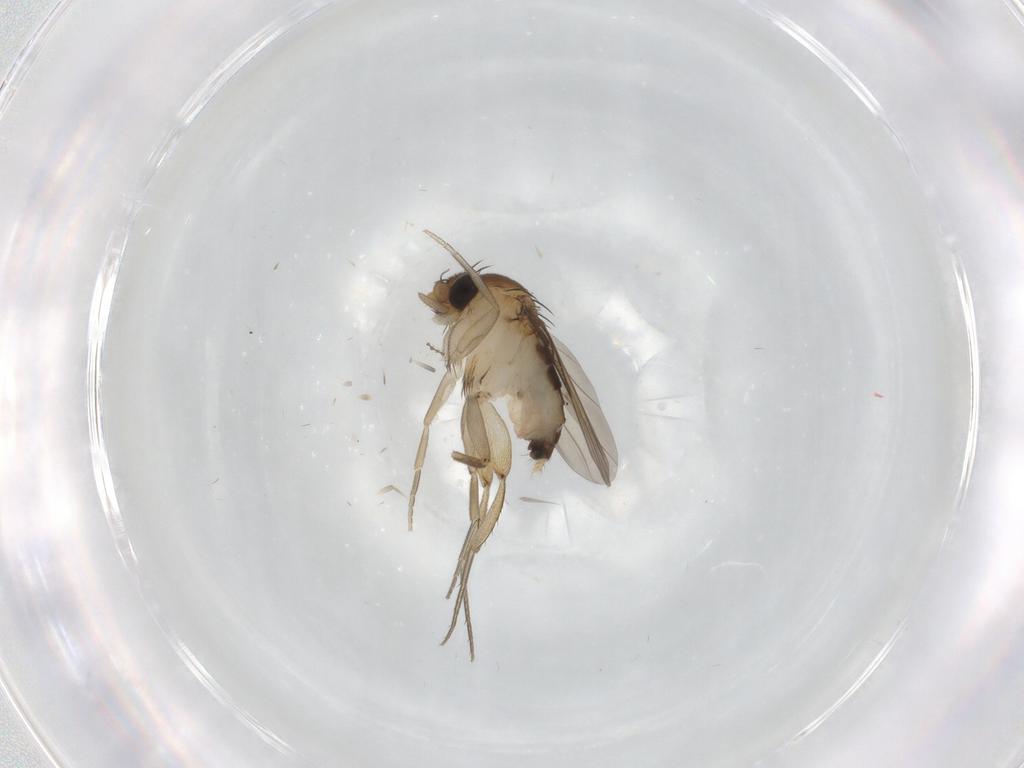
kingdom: Animalia
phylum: Arthropoda
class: Insecta
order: Diptera
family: Phoridae
